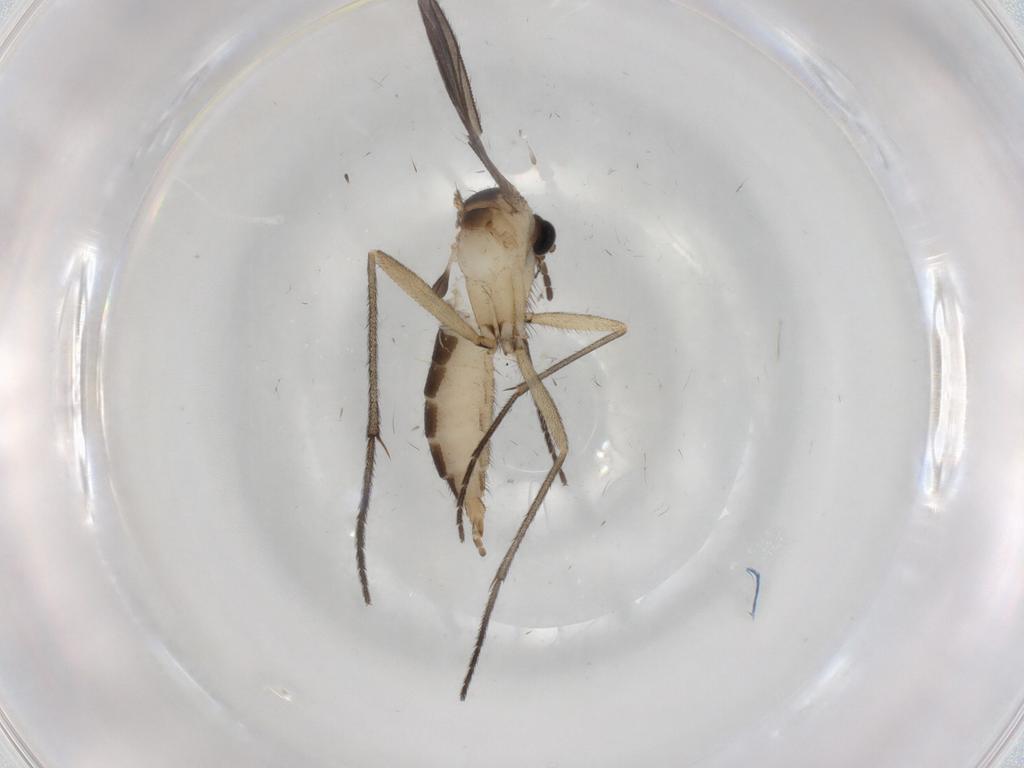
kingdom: Animalia
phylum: Arthropoda
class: Insecta
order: Diptera
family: Sciaridae
